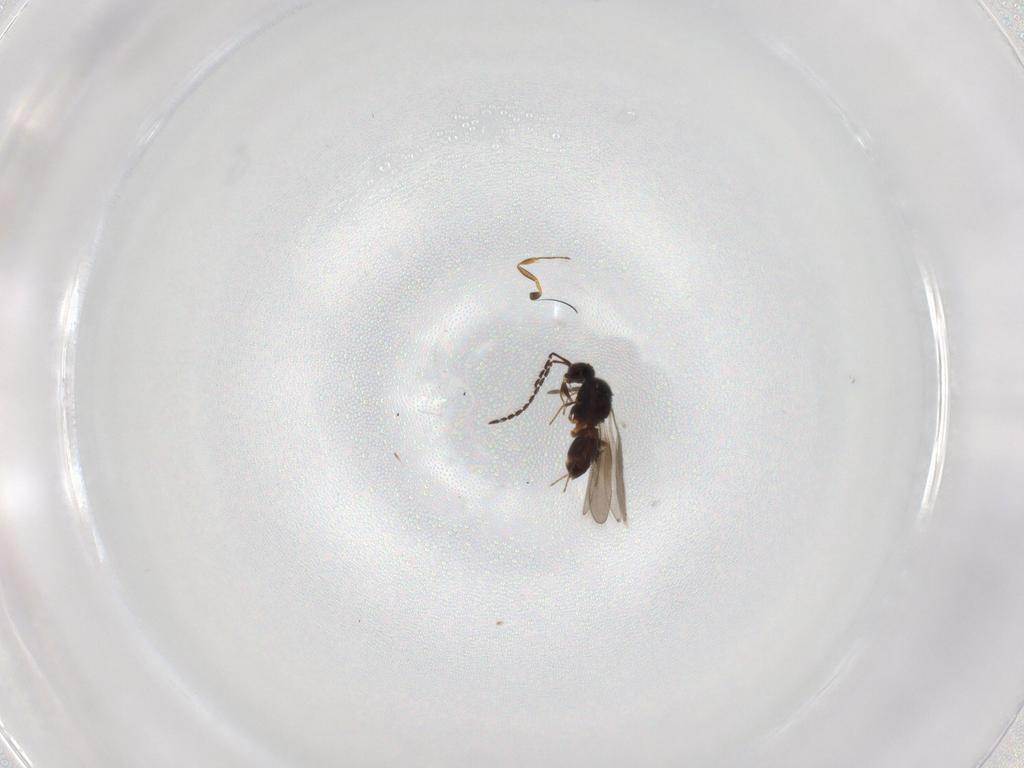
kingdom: Animalia
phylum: Arthropoda
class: Insecta
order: Hymenoptera
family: Scelionidae
